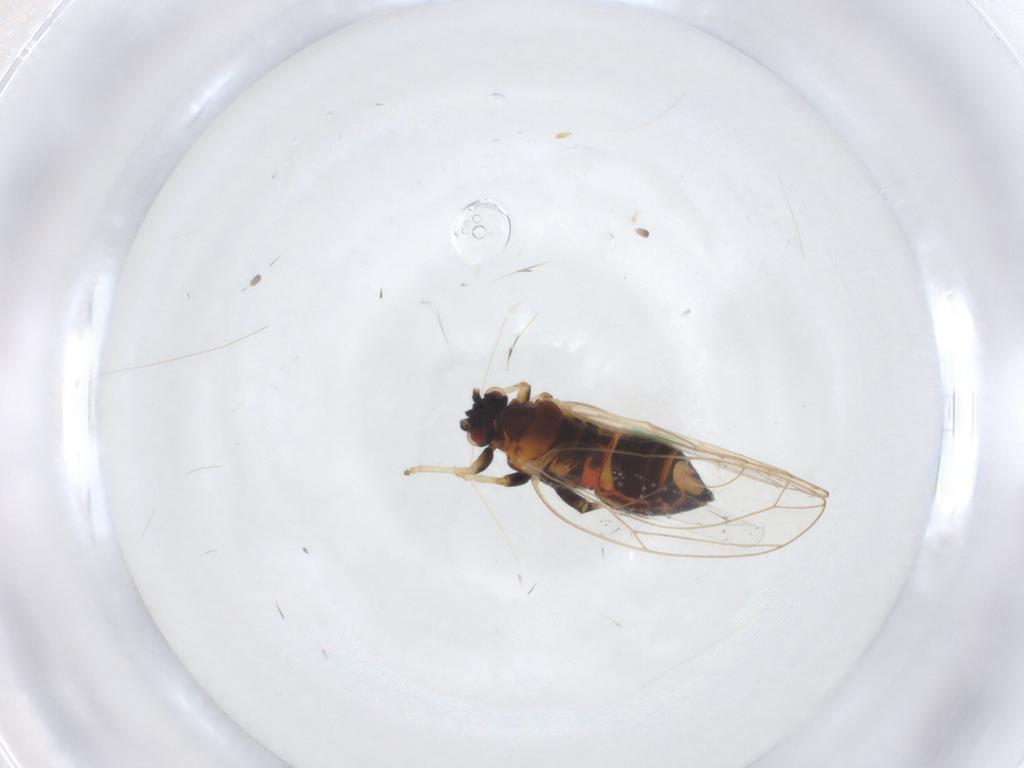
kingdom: Animalia
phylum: Arthropoda
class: Insecta
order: Hemiptera
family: Triozidae
